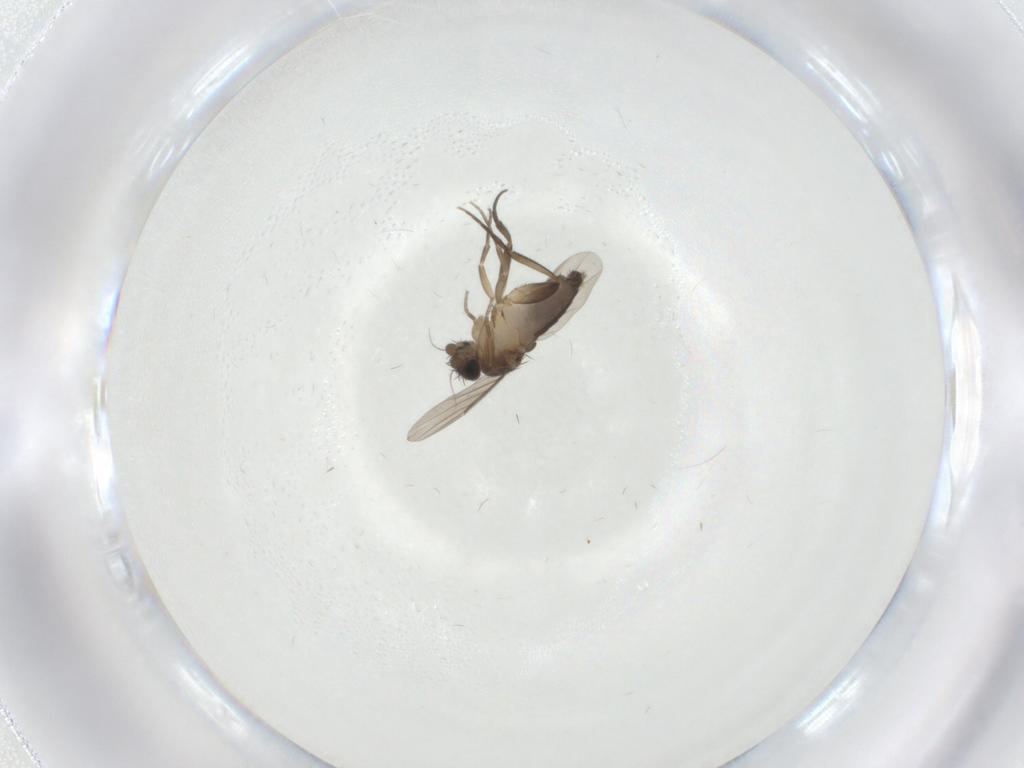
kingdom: Animalia
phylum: Arthropoda
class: Insecta
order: Diptera
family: Phoridae
